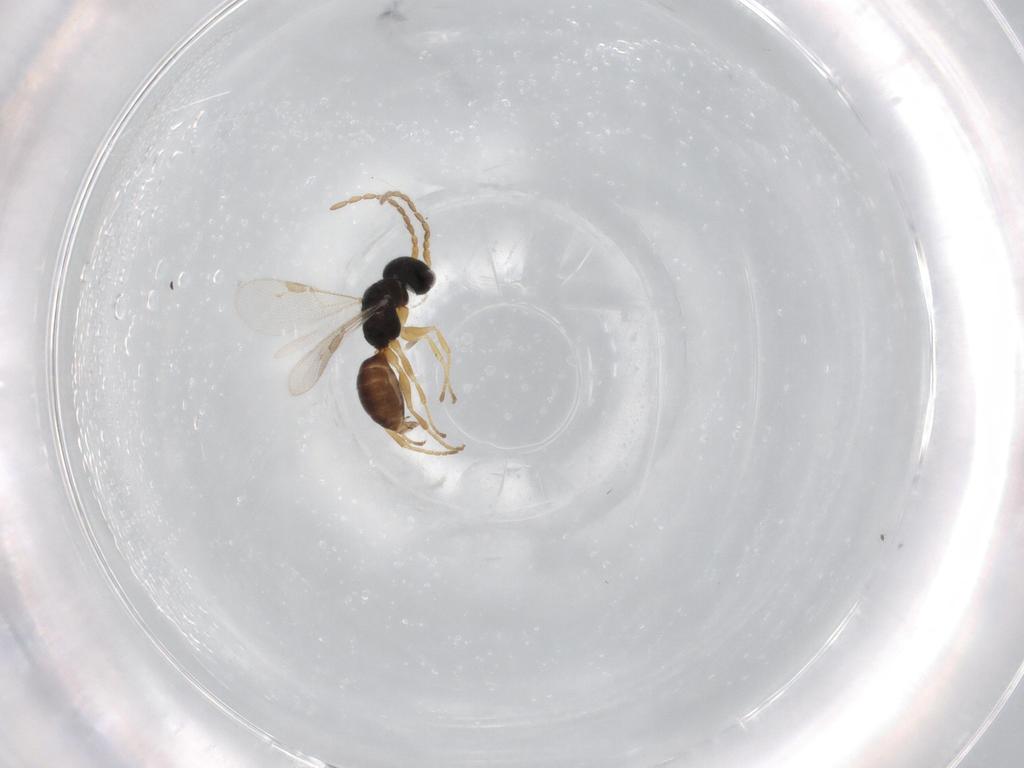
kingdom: Animalia
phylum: Arthropoda
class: Insecta
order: Hymenoptera
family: Dryinidae
